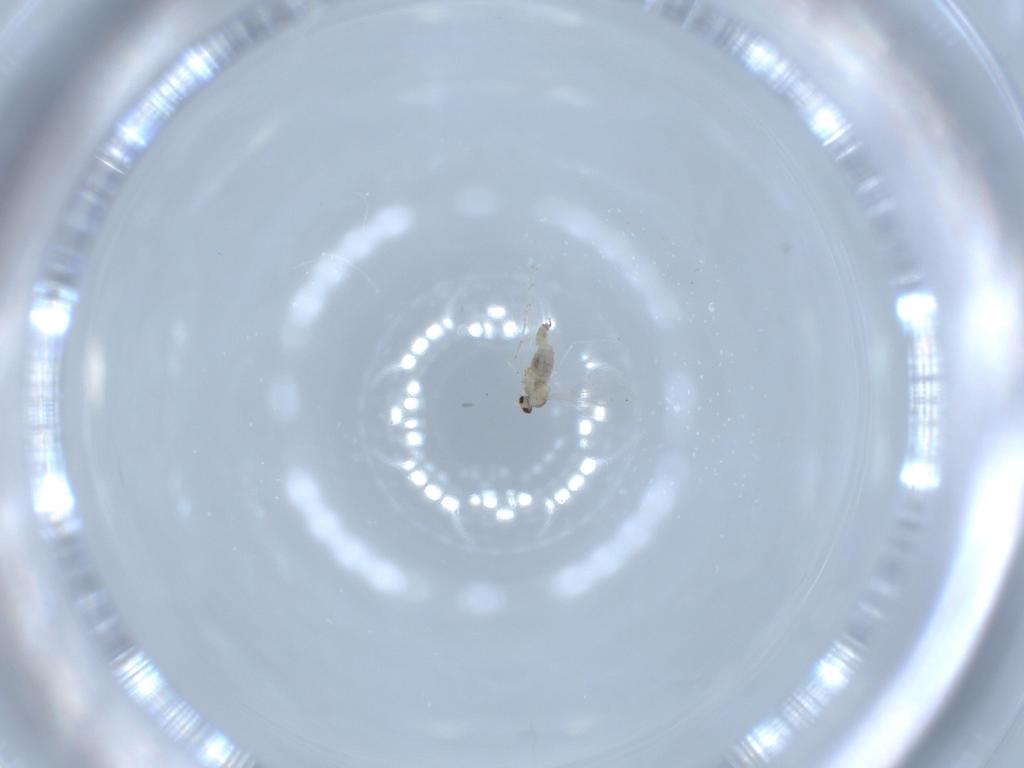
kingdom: Animalia
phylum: Arthropoda
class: Insecta
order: Diptera
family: Cecidomyiidae
